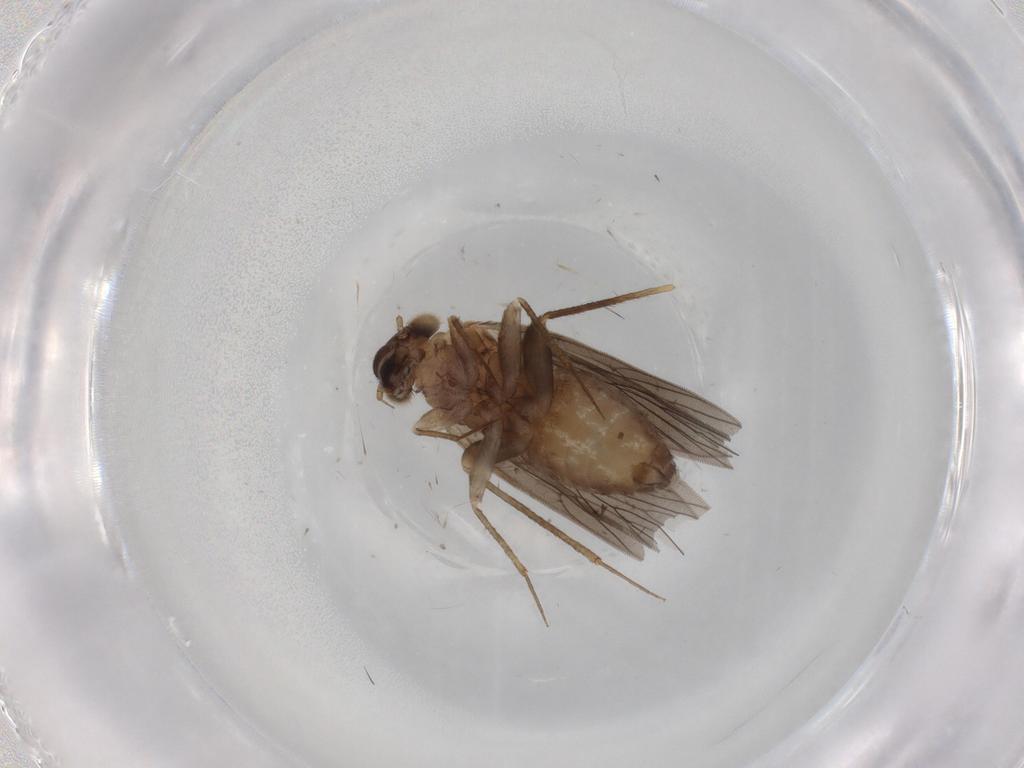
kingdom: Animalia
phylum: Arthropoda
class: Insecta
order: Psocodea
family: Lepidopsocidae
